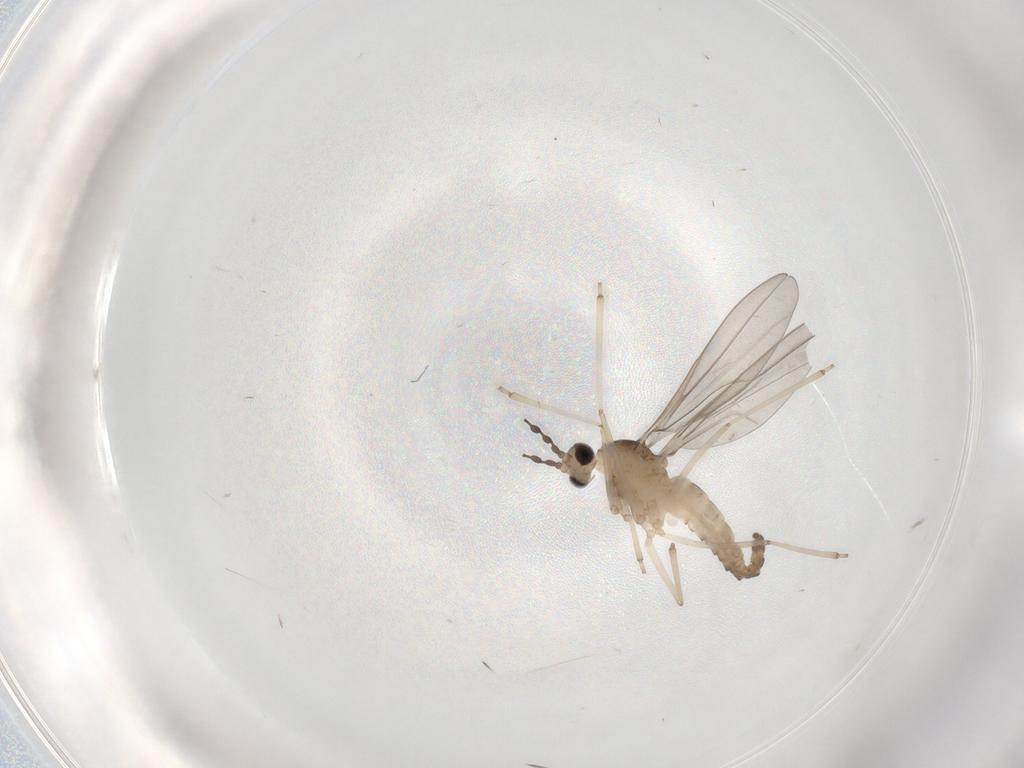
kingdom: Animalia
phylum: Arthropoda
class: Insecta
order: Diptera
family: Cecidomyiidae
